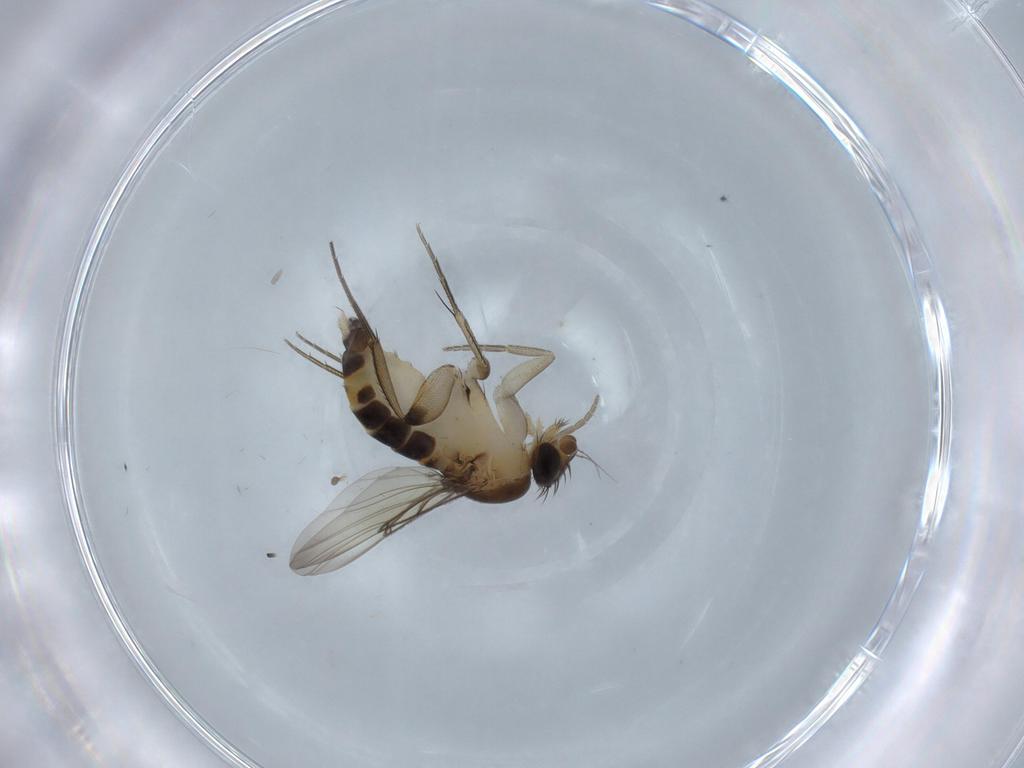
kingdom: Animalia
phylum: Arthropoda
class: Insecta
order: Diptera
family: Phoridae
